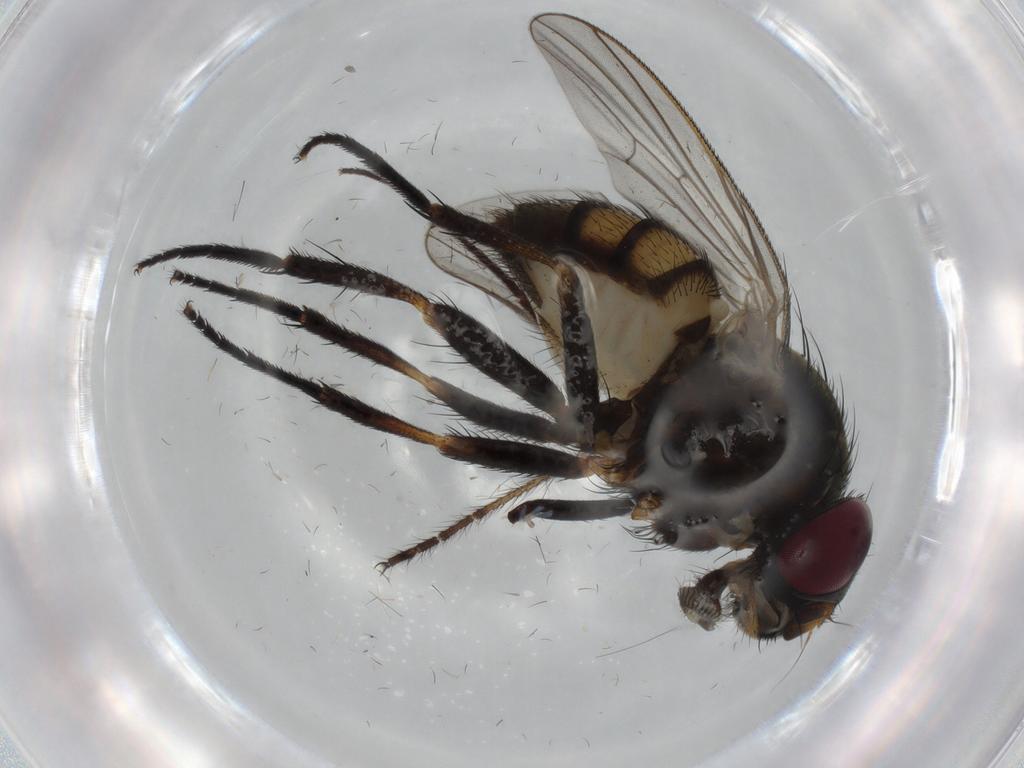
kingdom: Animalia
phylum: Arthropoda
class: Insecta
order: Diptera
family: Fannia
